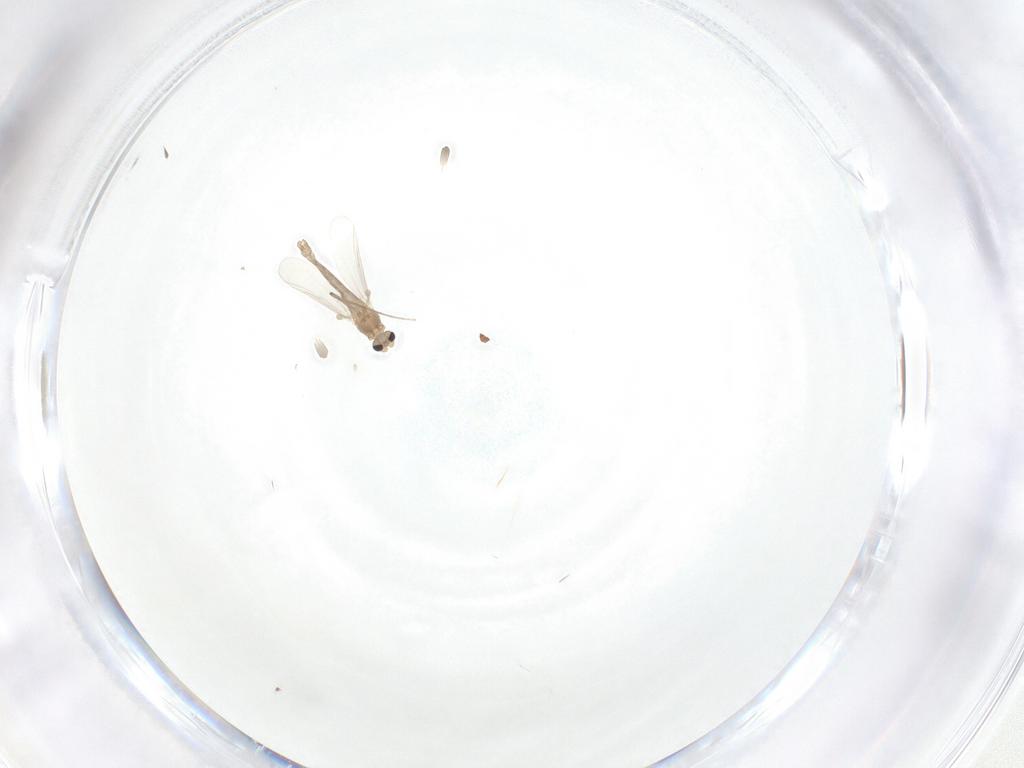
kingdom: Animalia
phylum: Arthropoda
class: Insecta
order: Diptera
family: Chironomidae
